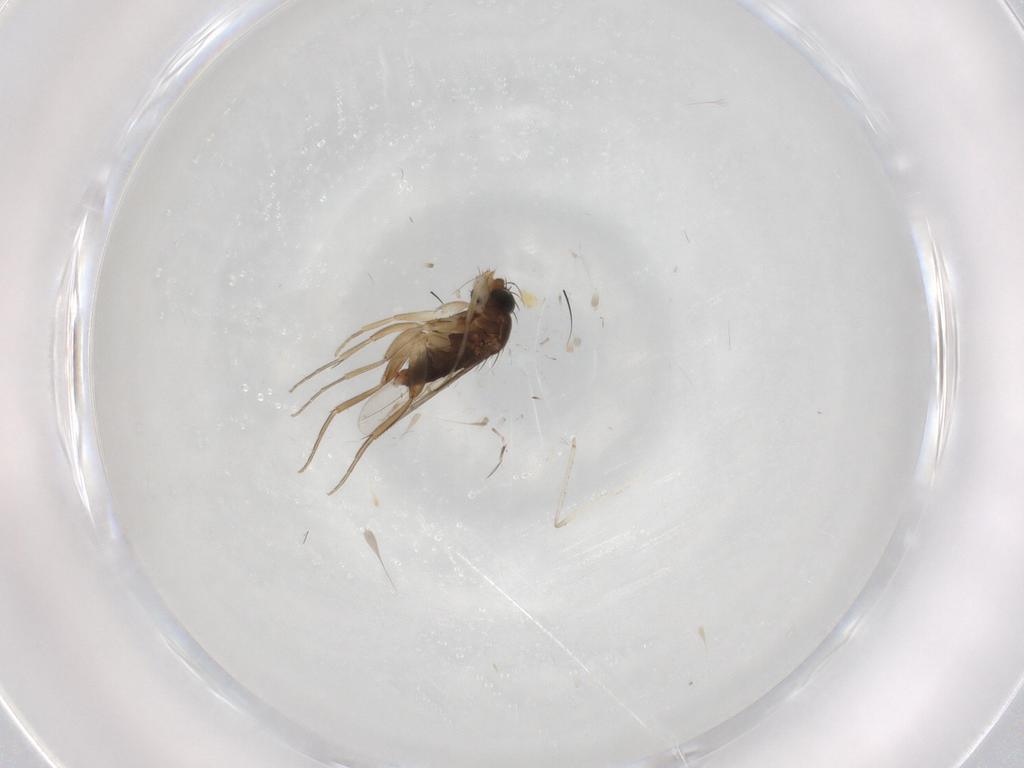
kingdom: Animalia
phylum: Arthropoda
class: Insecta
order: Diptera
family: Phoridae
